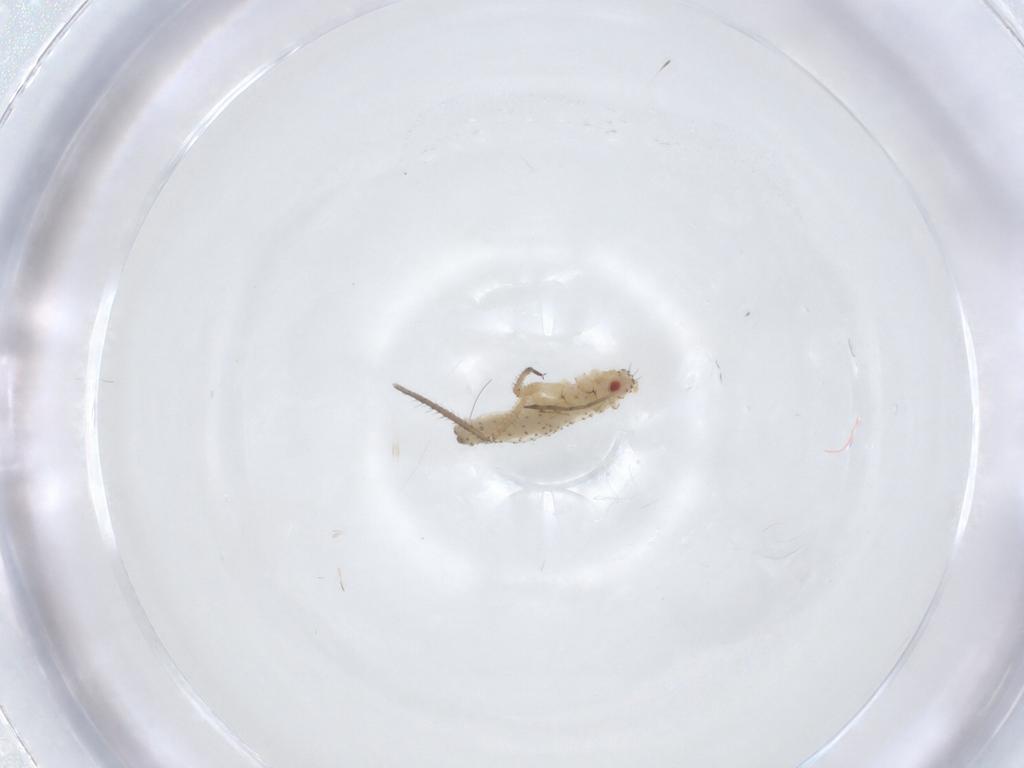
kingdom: Animalia
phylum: Arthropoda
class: Insecta
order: Hemiptera
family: Aphididae
